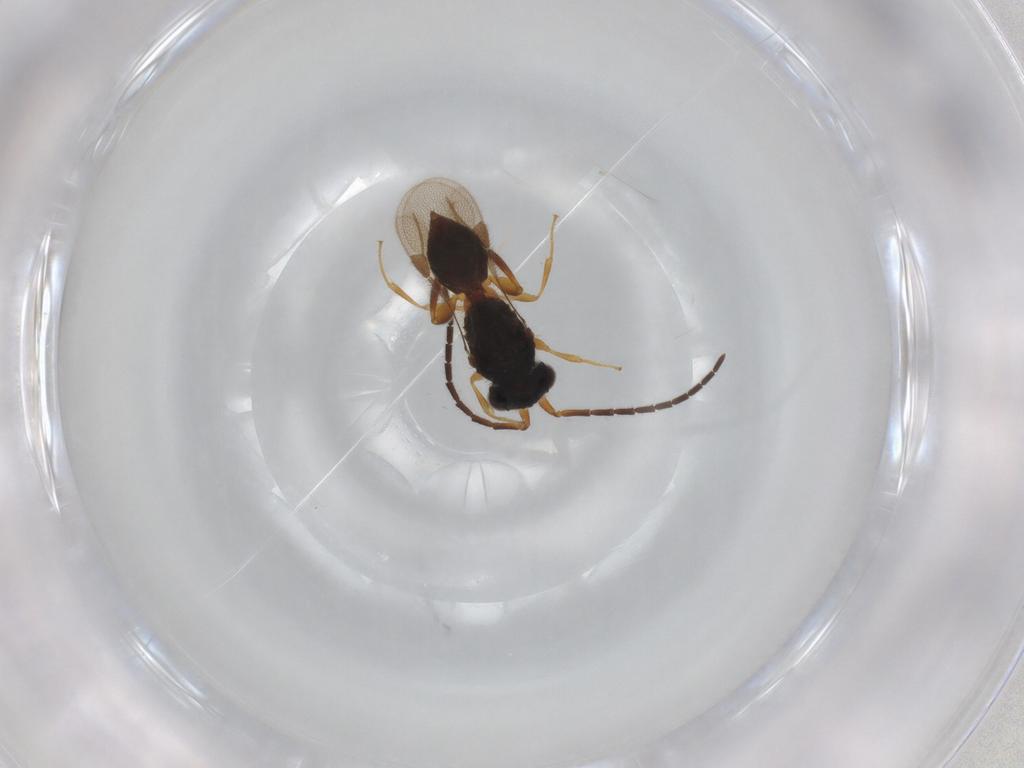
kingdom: Animalia
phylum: Arthropoda
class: Insecta
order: Hymenoptera
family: Megaspilidae
